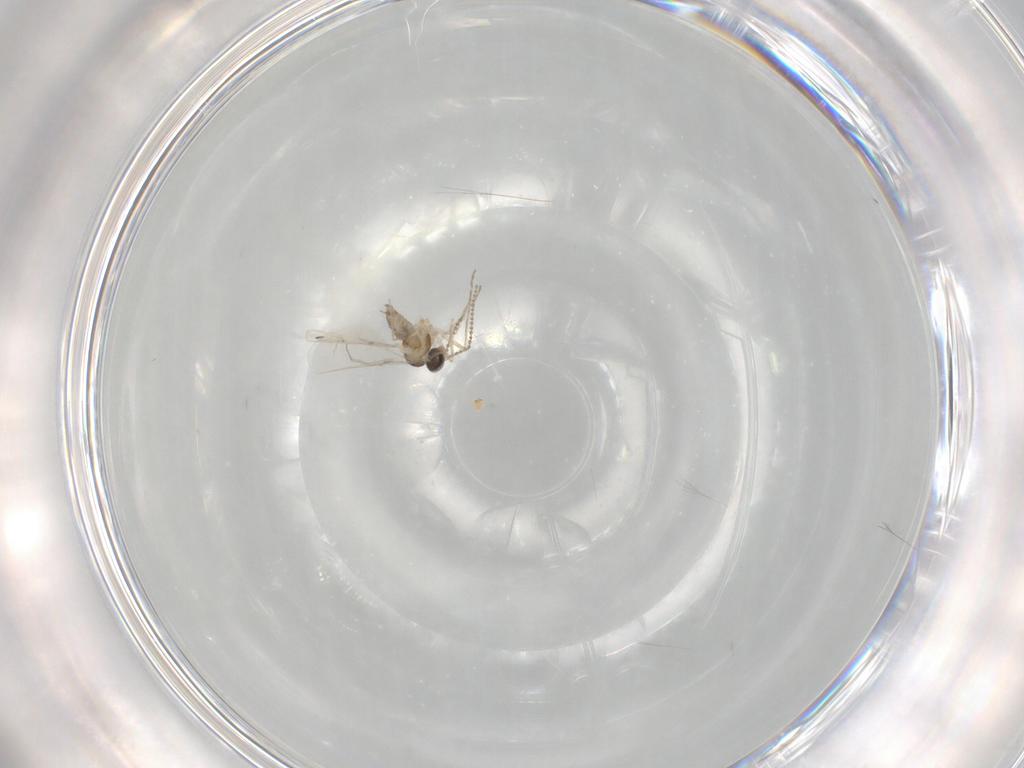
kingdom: Animalia
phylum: Arthropoda
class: Insecta
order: Diptera
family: Cecidomyiidae
